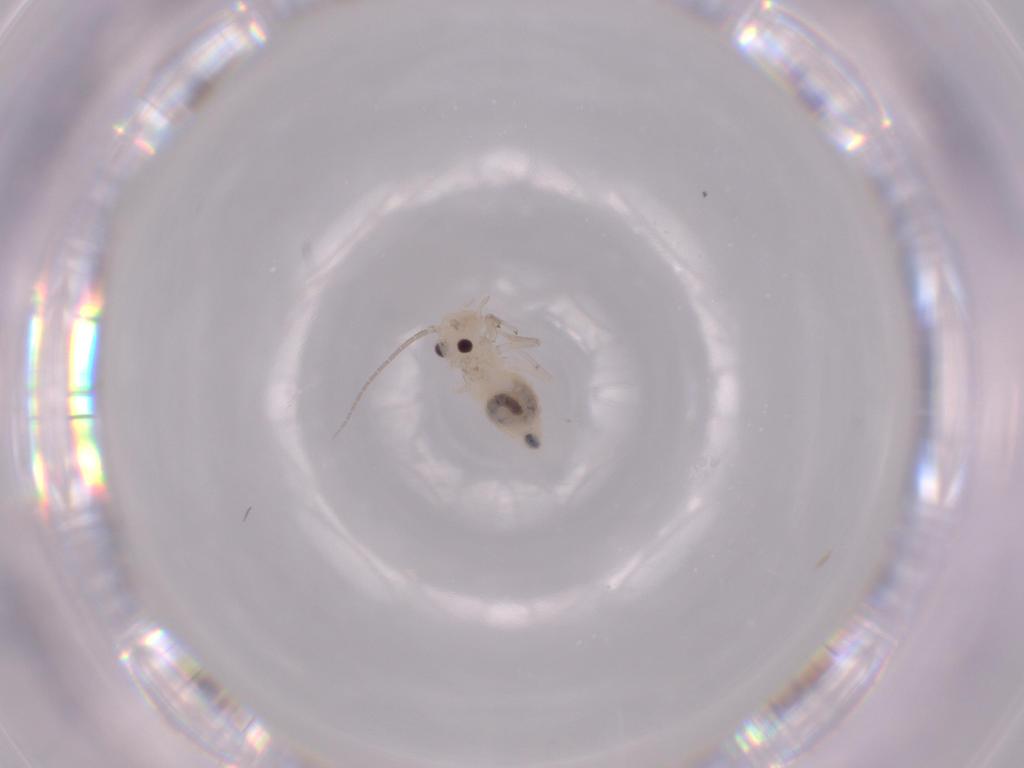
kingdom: Animalia
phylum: Arthropoda
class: Insecta
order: Psocodea
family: Caeciliusidae
